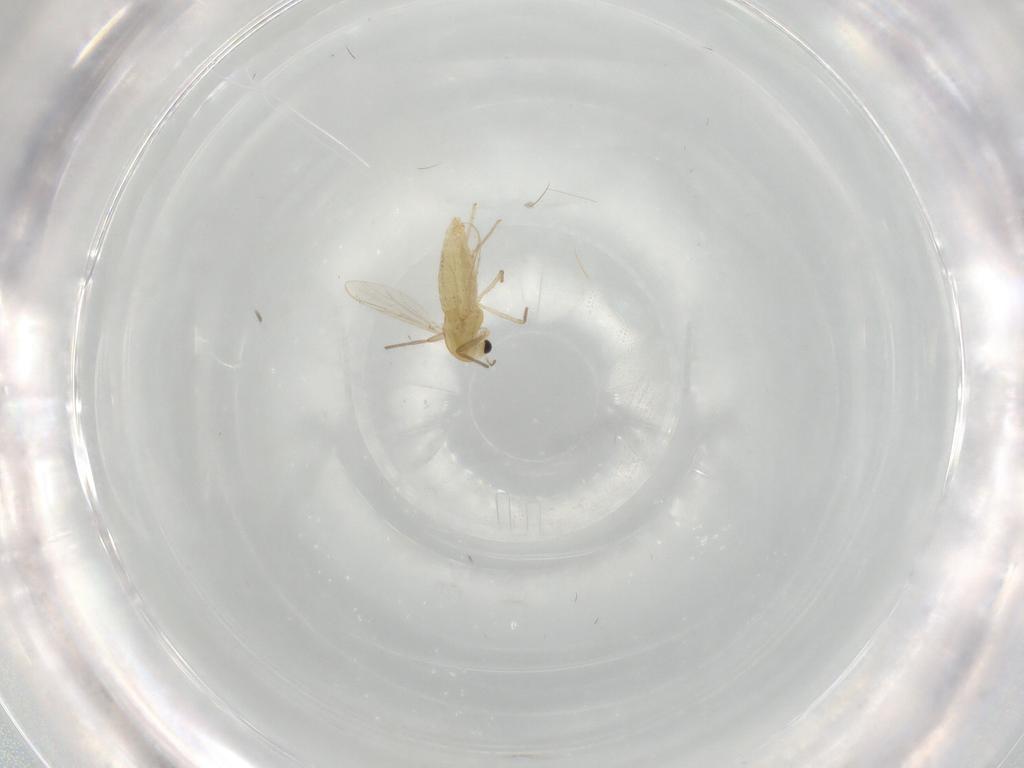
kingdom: Animalia
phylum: Arthropoda
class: Insecta
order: Diptera
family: Chironomidae
